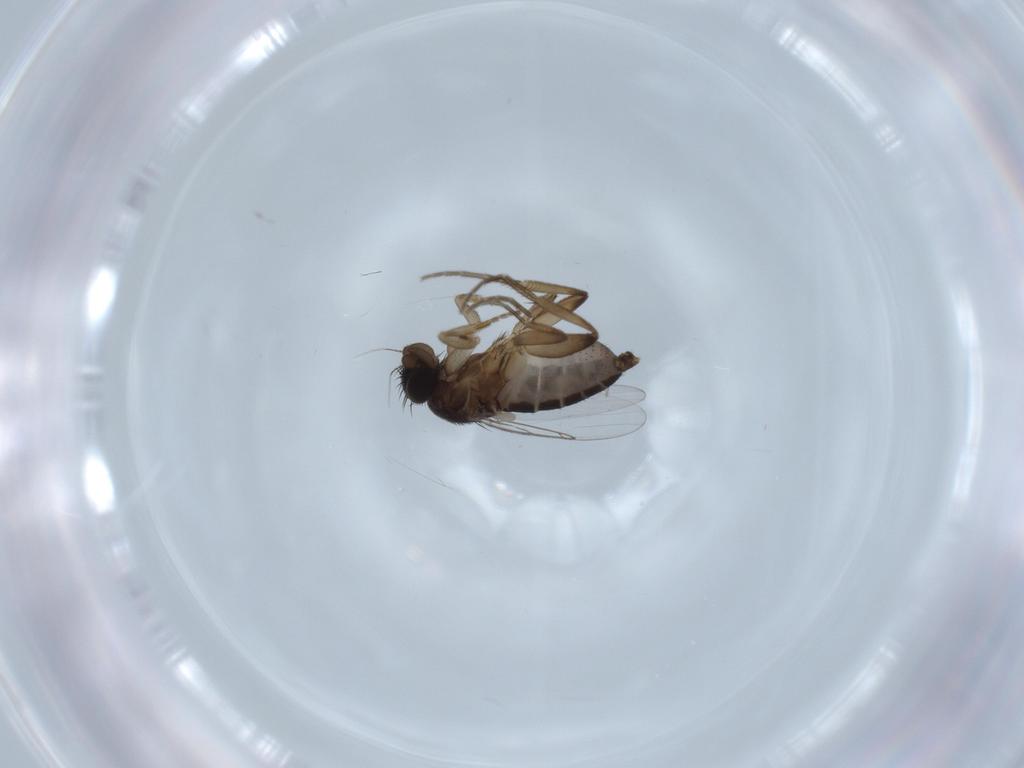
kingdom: Animalia
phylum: Arthropoda
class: Insecta
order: Diptera
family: Phoridae
